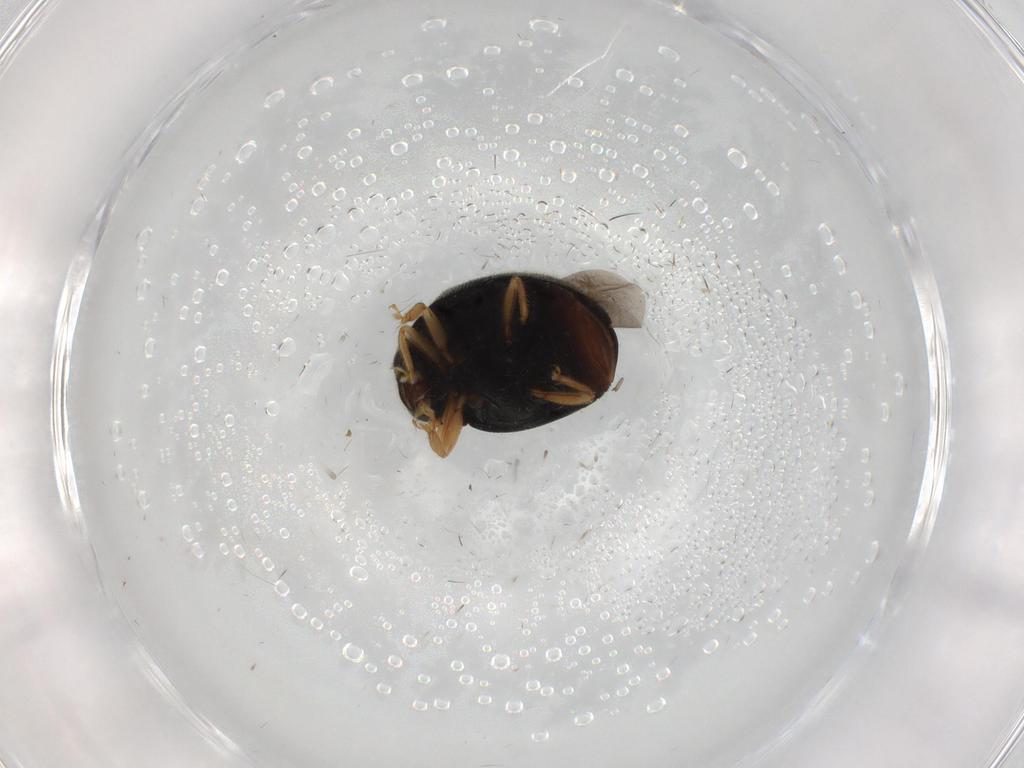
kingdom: Animalia
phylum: Arthropoda
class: Insecta
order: Coleoptera
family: Coccinellidae
